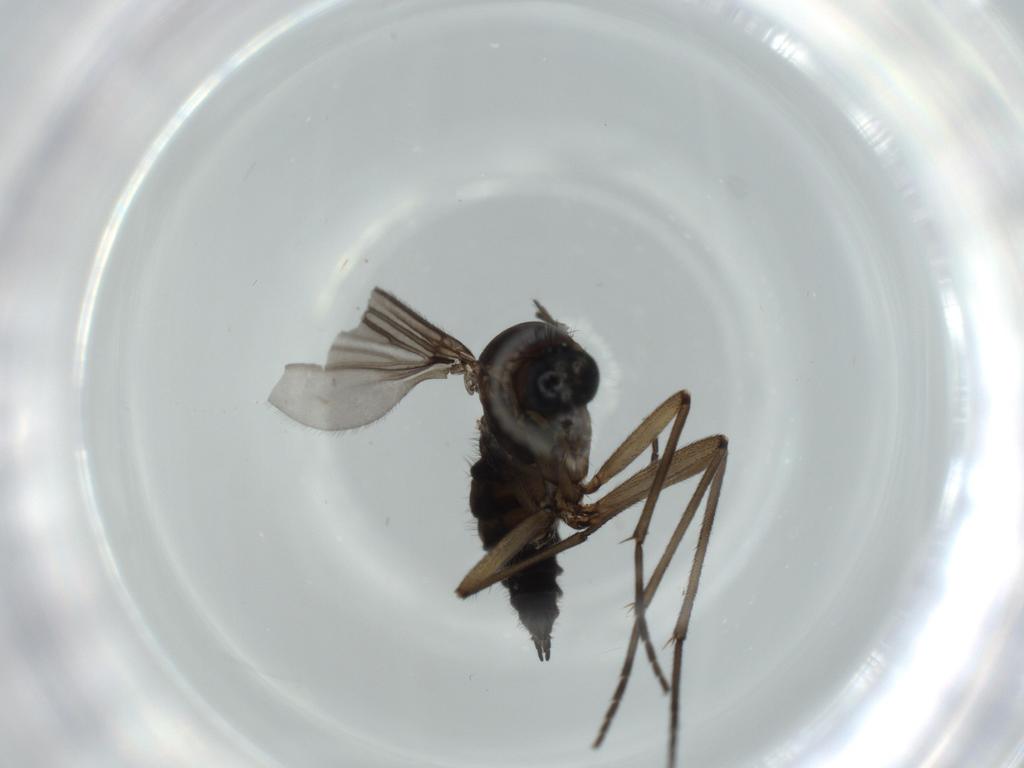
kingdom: Animalia
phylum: Arthropoda
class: Insecta
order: Diptera
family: Sciaridae
